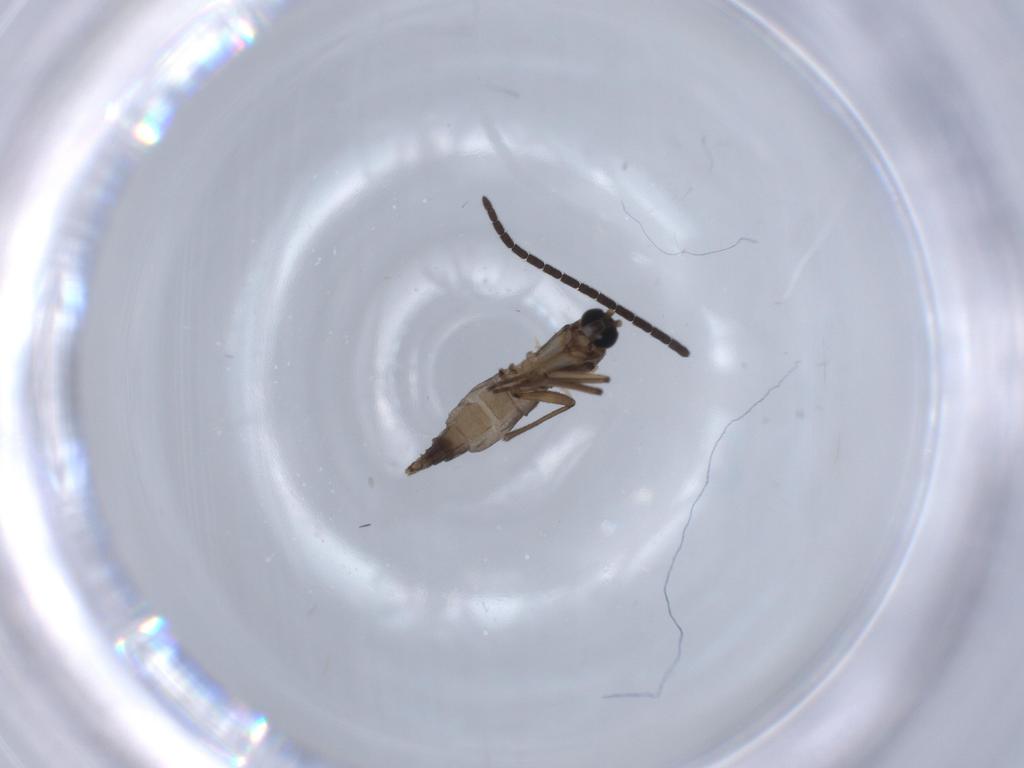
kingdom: Animalia
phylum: Arthropoda
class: Insecta
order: Diptera
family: Phoridae
